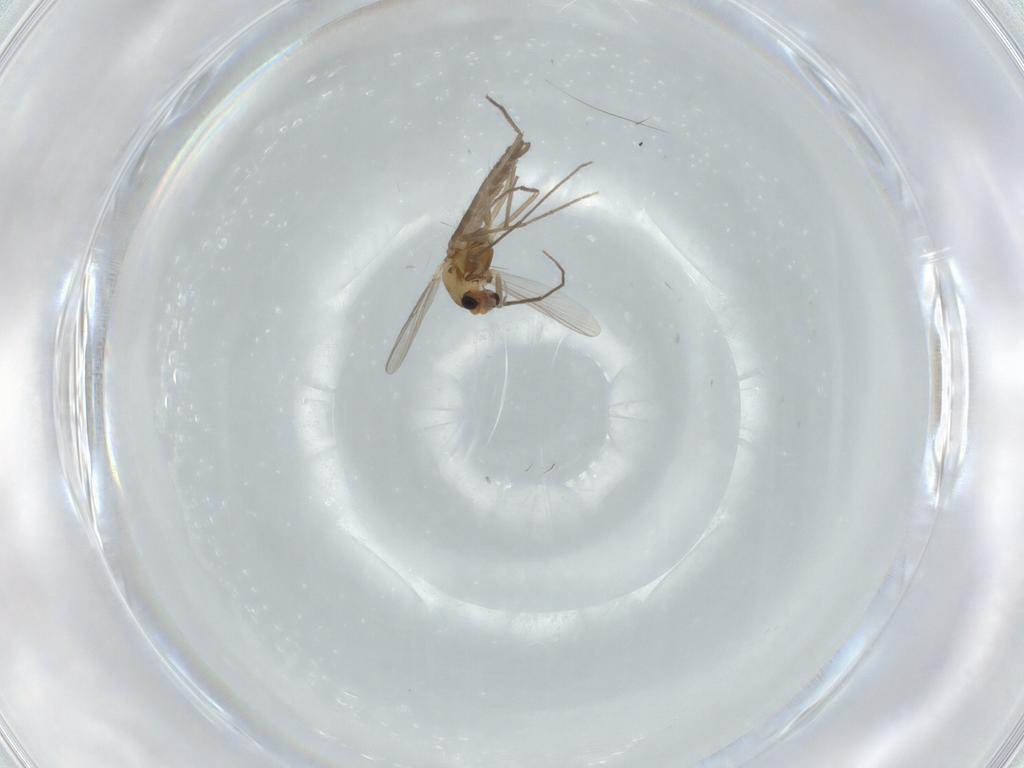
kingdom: Animalia
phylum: Arthropoda
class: Insecta
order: Diptera
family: Chironomidae
